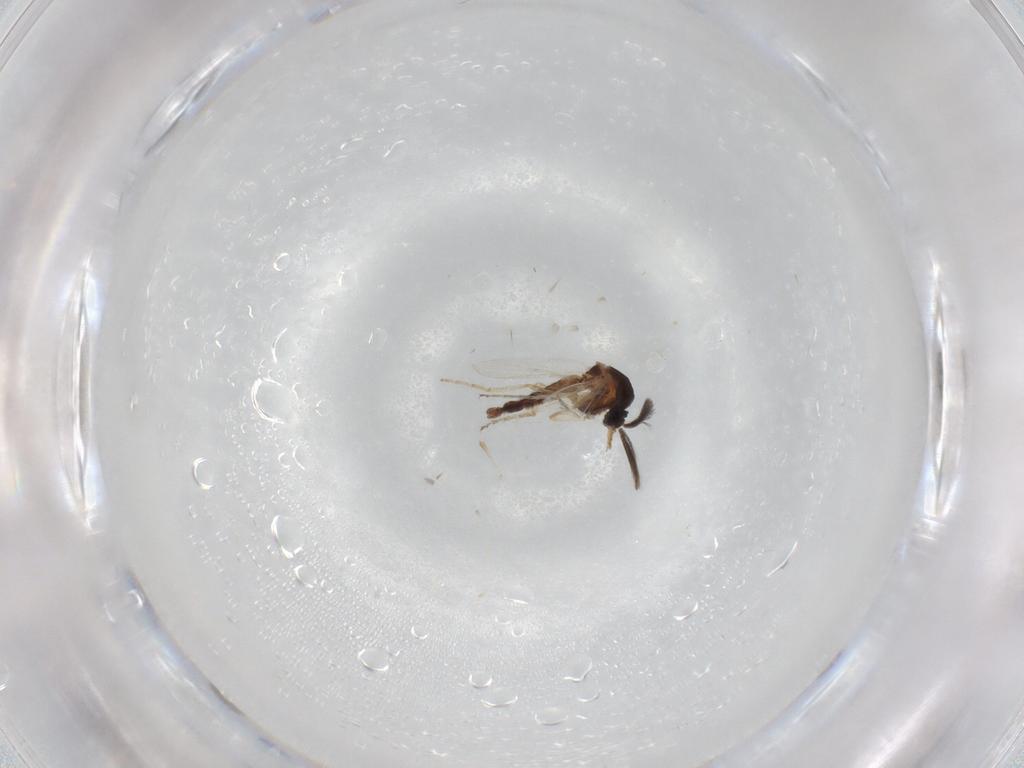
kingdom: Animalia
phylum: Arthropoda
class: Insecta
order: Diptera
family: Ceratopogonidae
